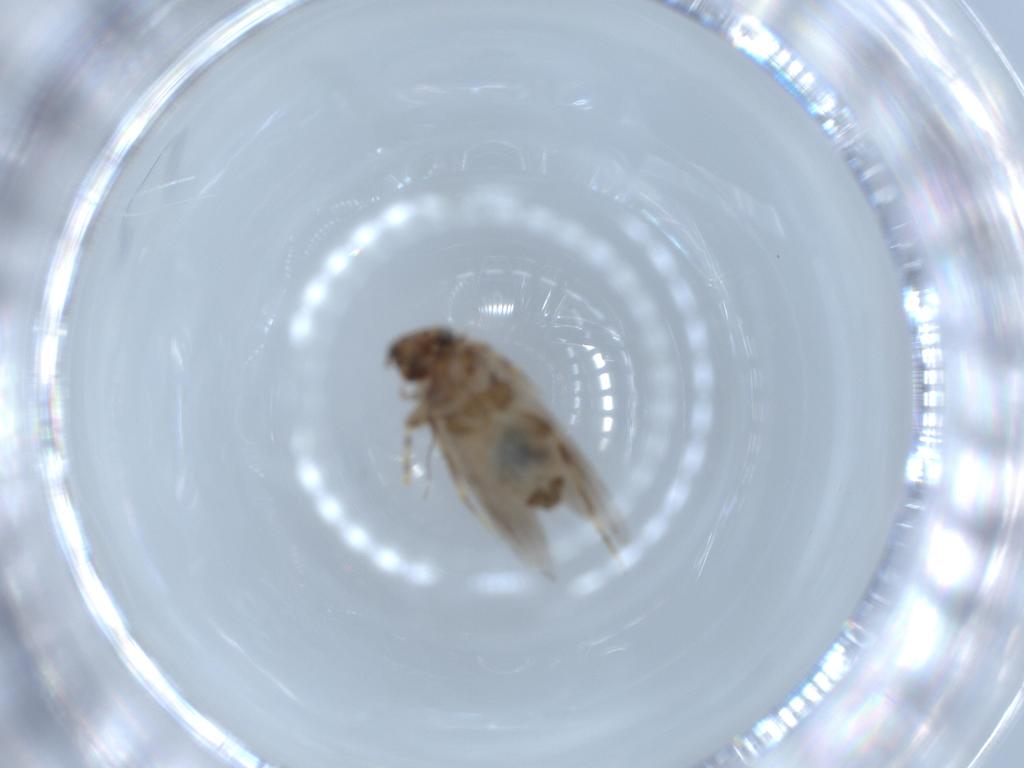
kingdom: Animalia
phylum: Arthropoda
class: Insecta
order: Psocodea
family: Lepidopsocidae
